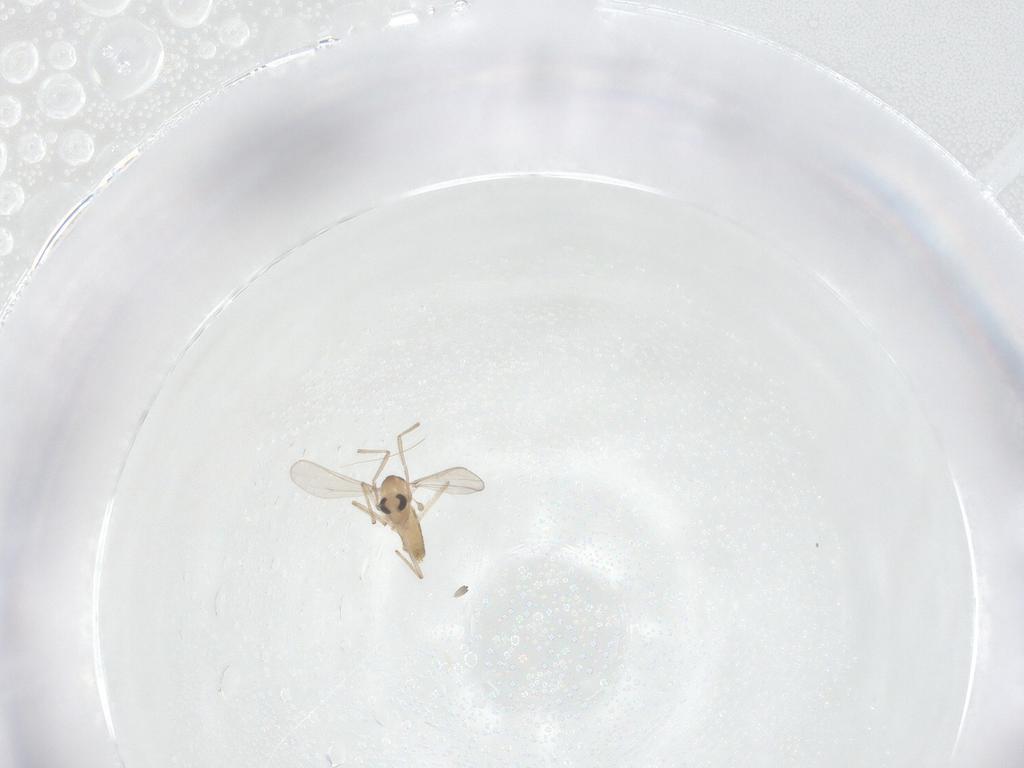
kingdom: Animalia
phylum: Arthropoda
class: Insecta
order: Diptera
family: Chironomidae
